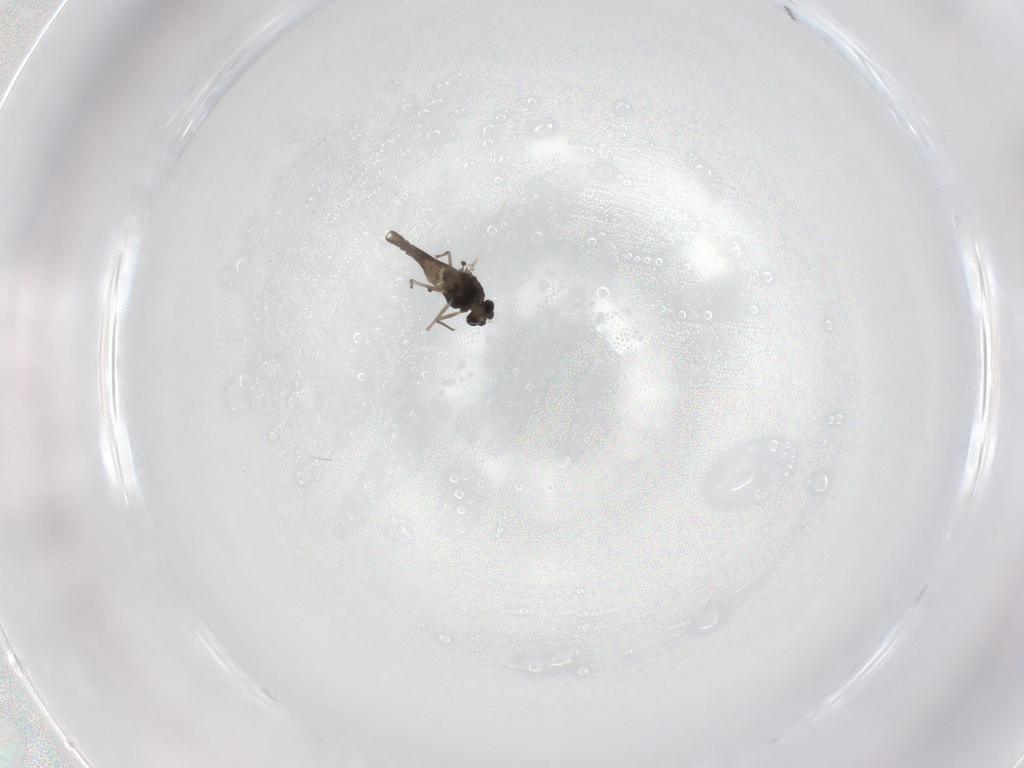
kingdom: Animalia
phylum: Arthropoda
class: Insecta
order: Diptera
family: Chironomidae
